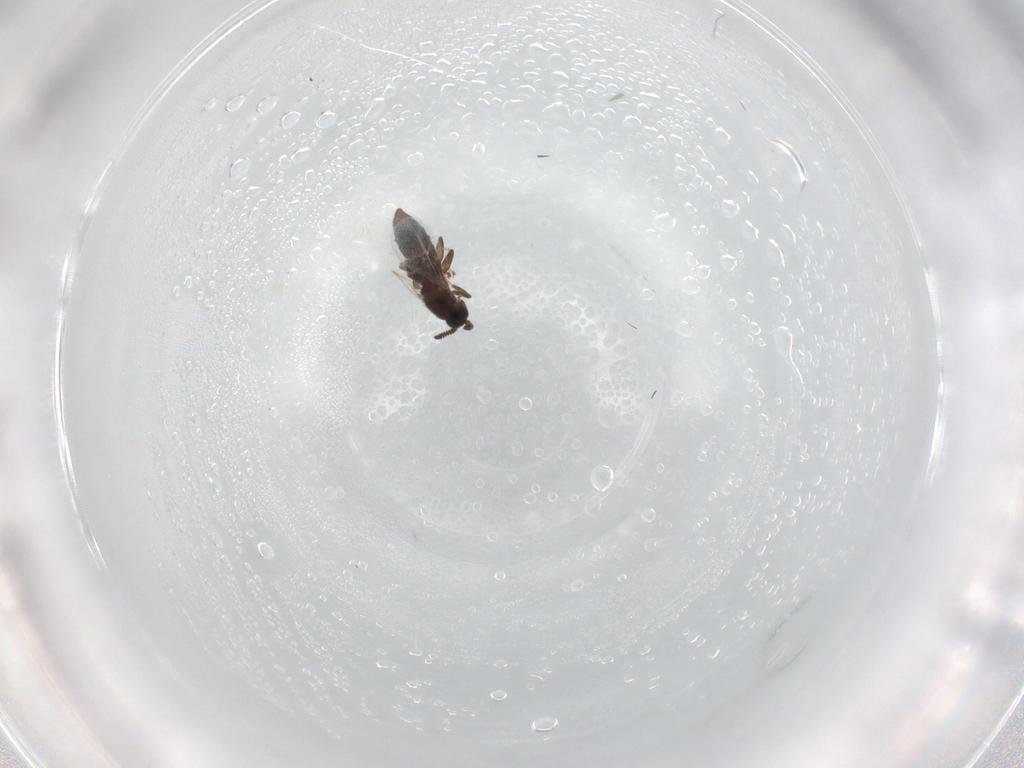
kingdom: Animalia
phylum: Arthropoda
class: Insecta
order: Diptera
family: Scatopsidae
